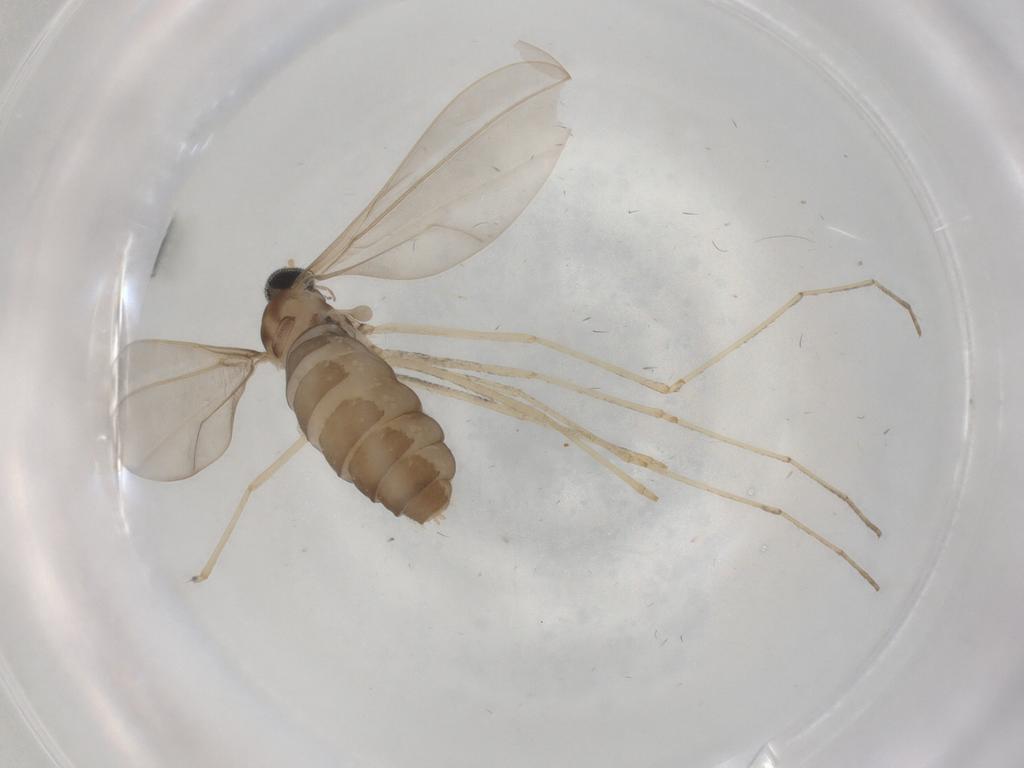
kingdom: Animalia
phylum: Arthropoda
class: Insecta
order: Diptera
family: Cecidomyiidae
